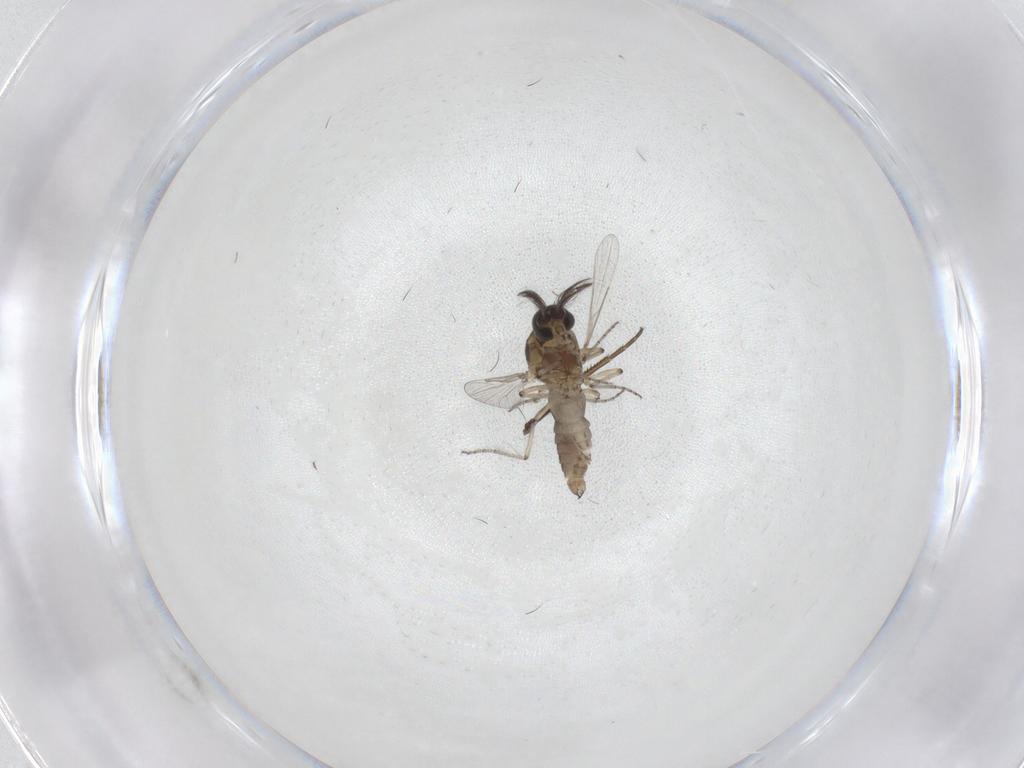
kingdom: Animalia
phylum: Arthropoda
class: Insecta
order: Diptera
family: Ceratopogonidae
